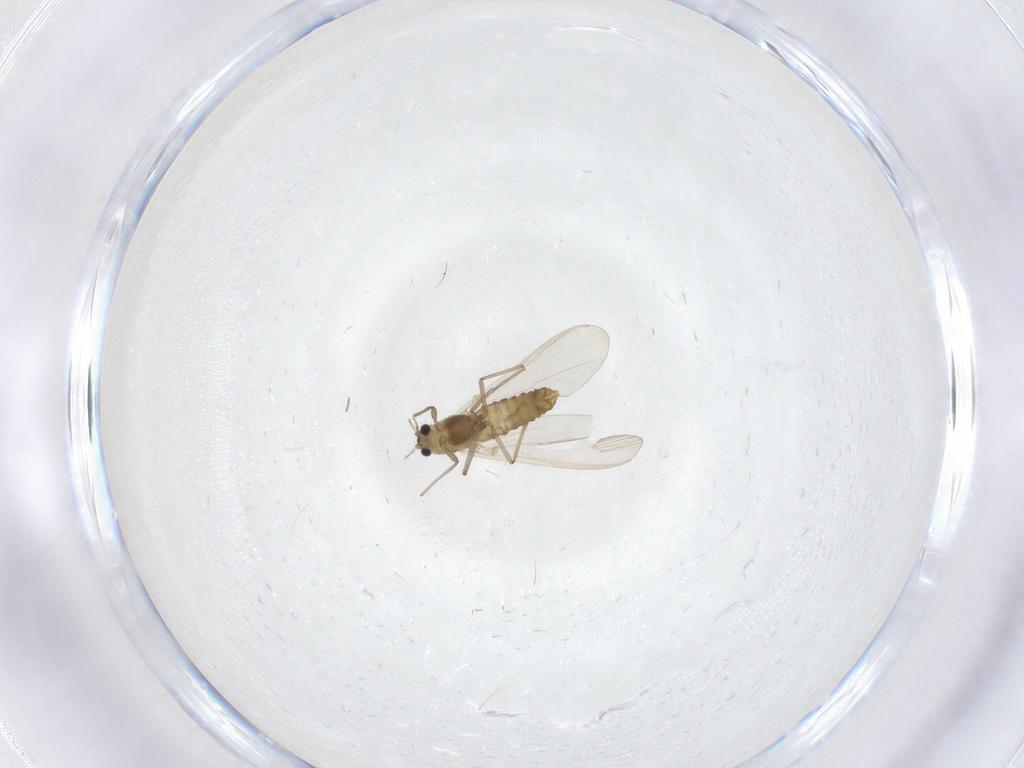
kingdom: Animalia
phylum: Arthropoda
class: Insecta
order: Diptera
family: Chironomidae
